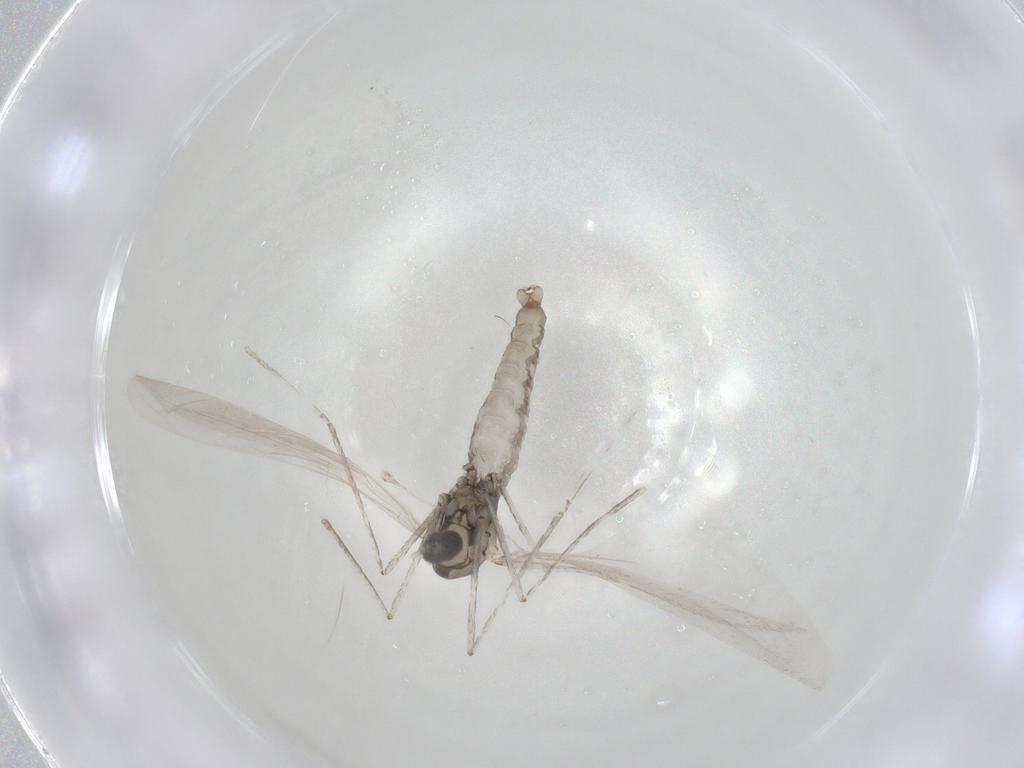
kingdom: Animalia
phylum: Arthropoda
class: Insecta
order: Diptera
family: Cecidomyiidae
